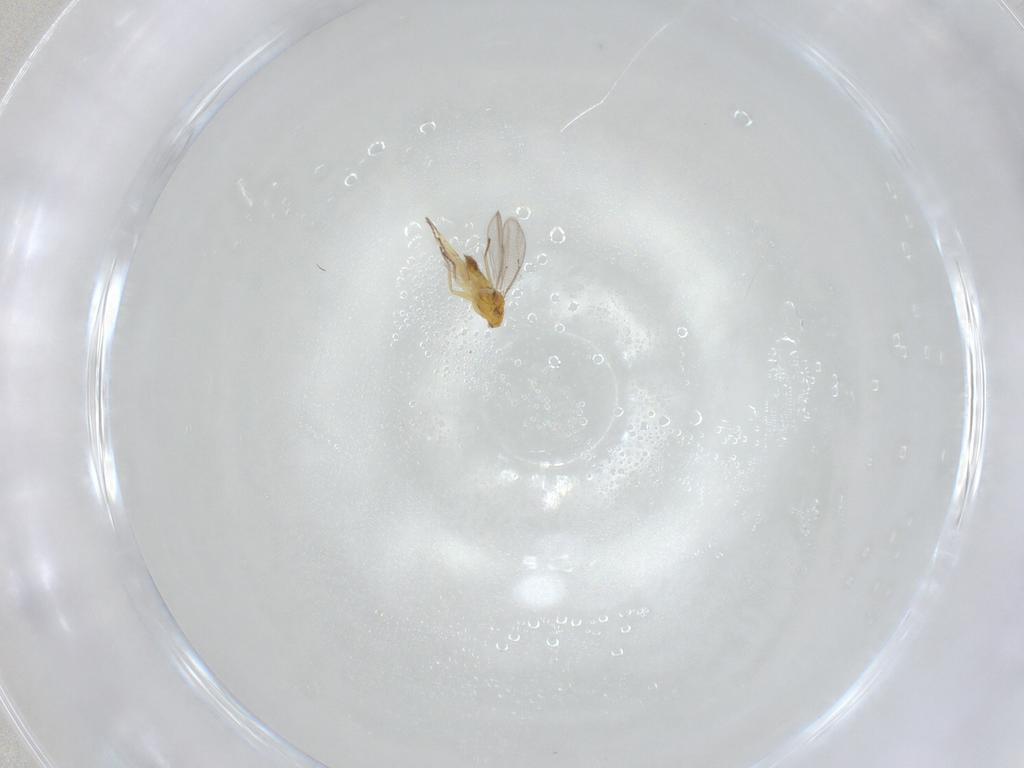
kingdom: Animalia
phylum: Arthropoda
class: Insecta
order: Hymenoptera
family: Eulophidae
